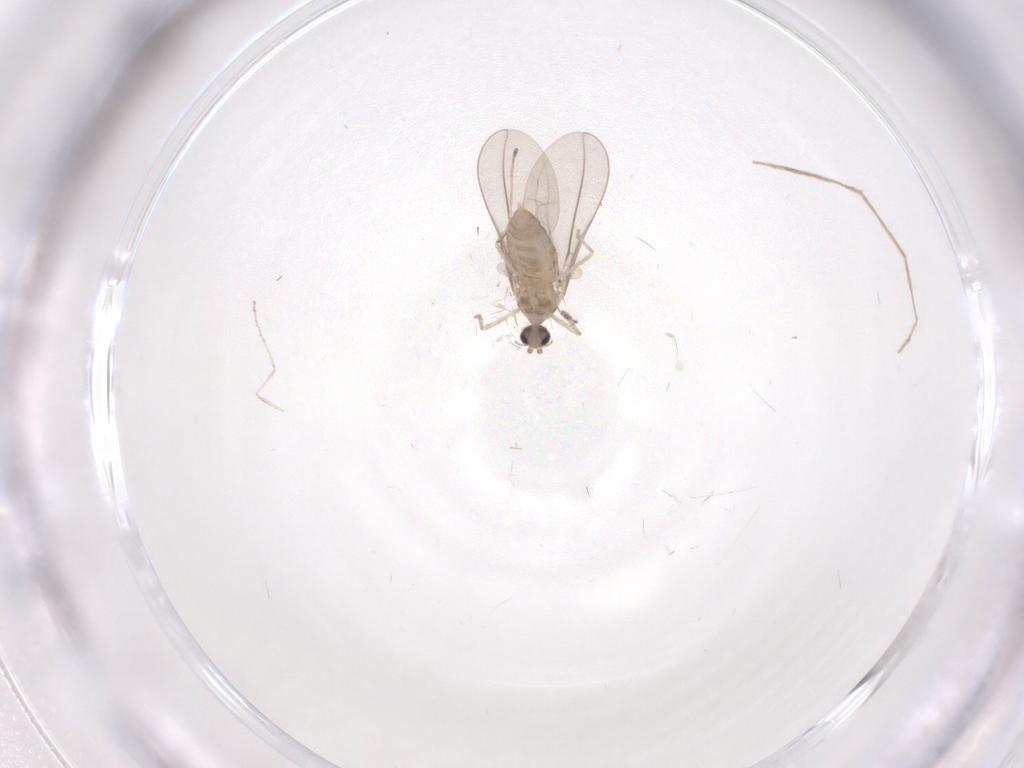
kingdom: Animalia
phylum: Arthropoda
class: Insecta
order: Diptera
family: Cecidomyiidae
